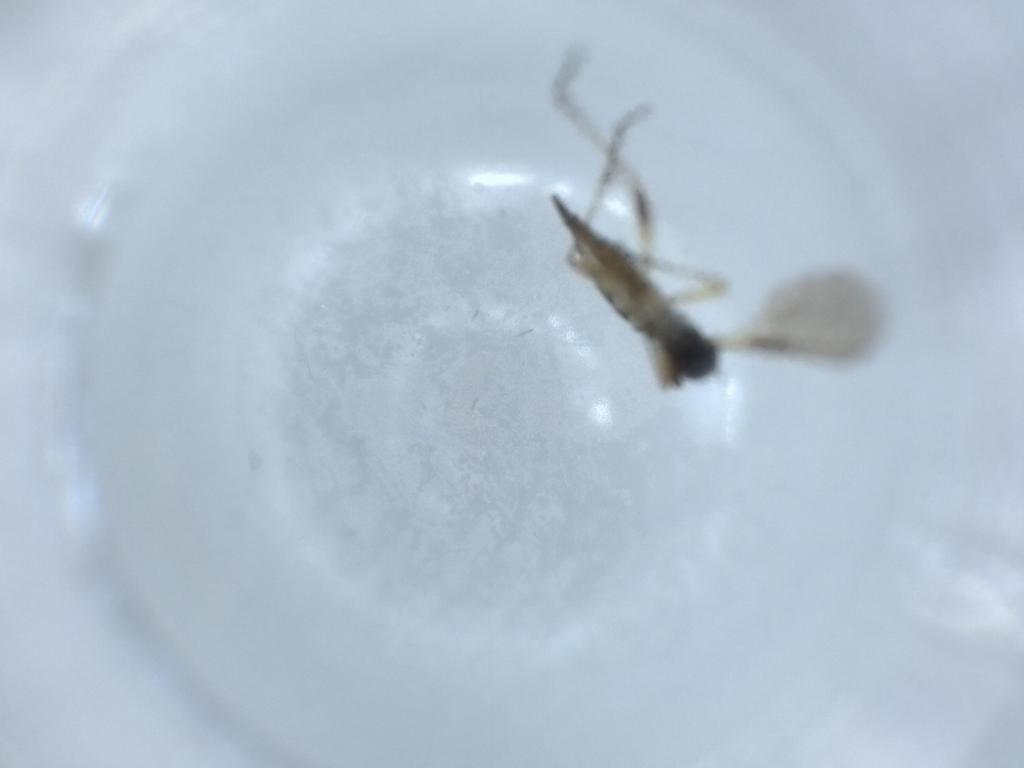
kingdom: Animalia
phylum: Arthropoda
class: Insecta
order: Diptera
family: Sciaridae
